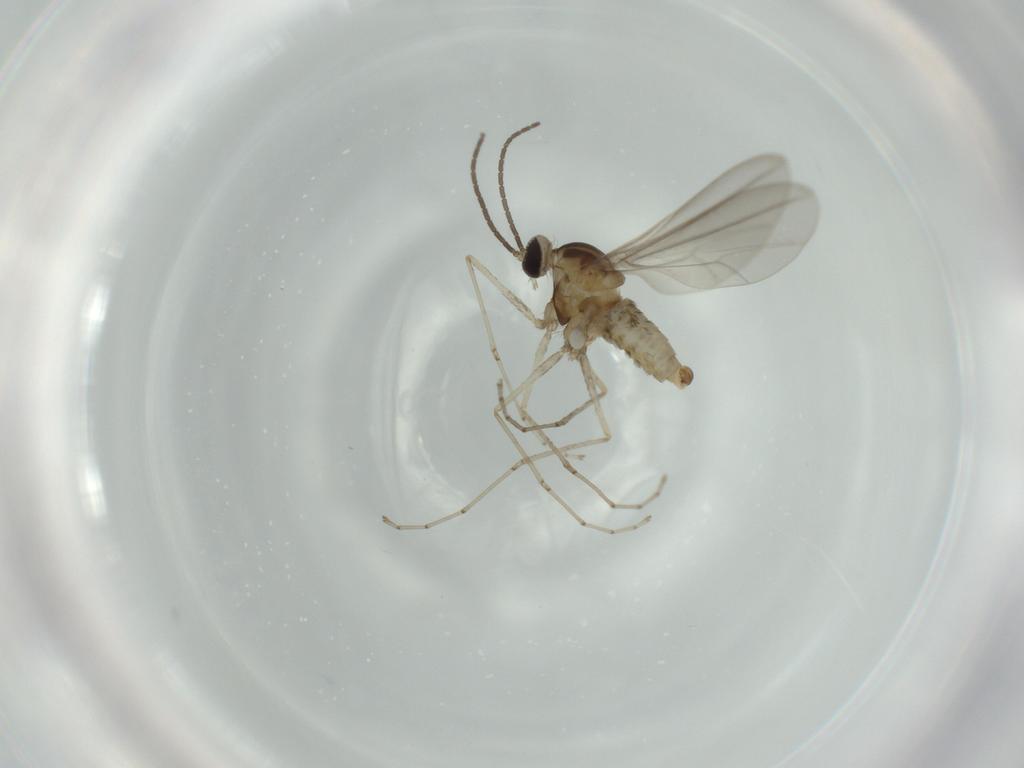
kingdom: Animalia
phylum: Arthropoda
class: Insecta
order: Diptera
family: Cecidomyiidae
